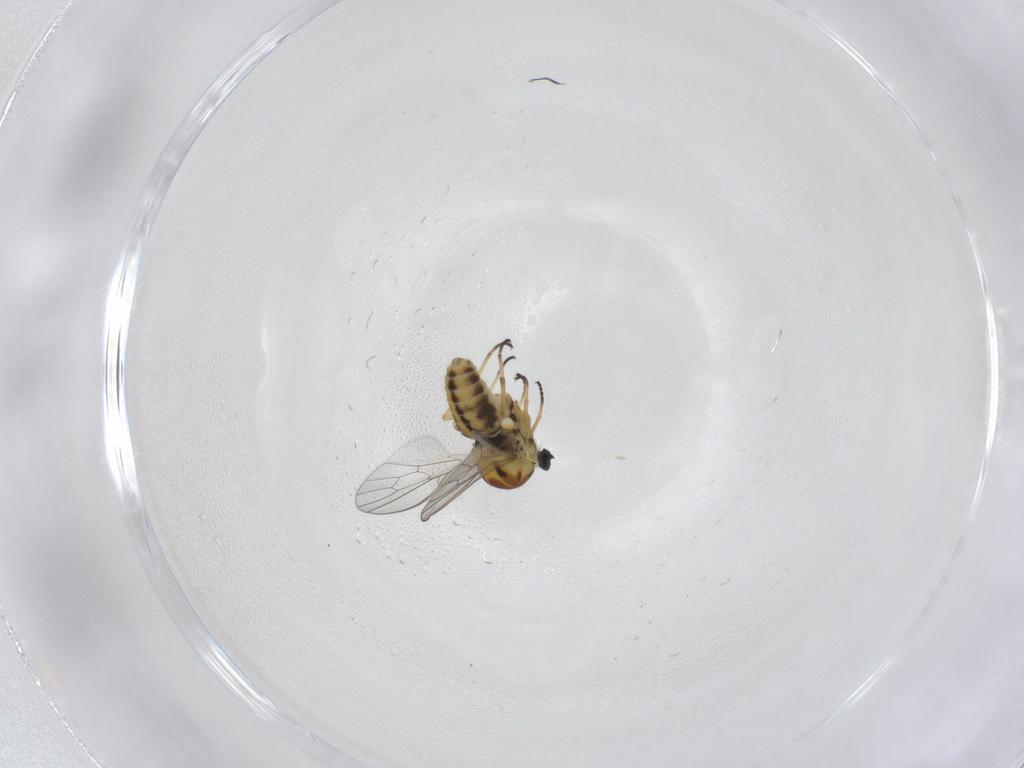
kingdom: Animalia
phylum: Arthropoda
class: Insecta
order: Diptera
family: Bombyliidae
